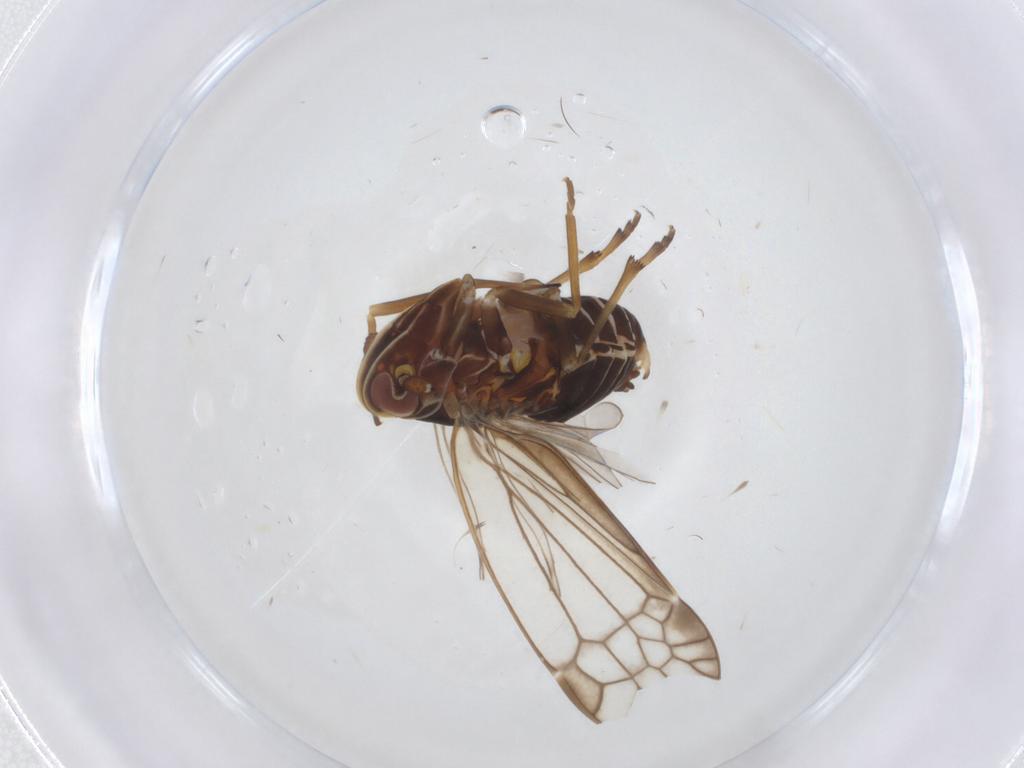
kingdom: Animalia
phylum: Arthropoda
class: Insecta
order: Hemiptera
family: Kinnaridae
